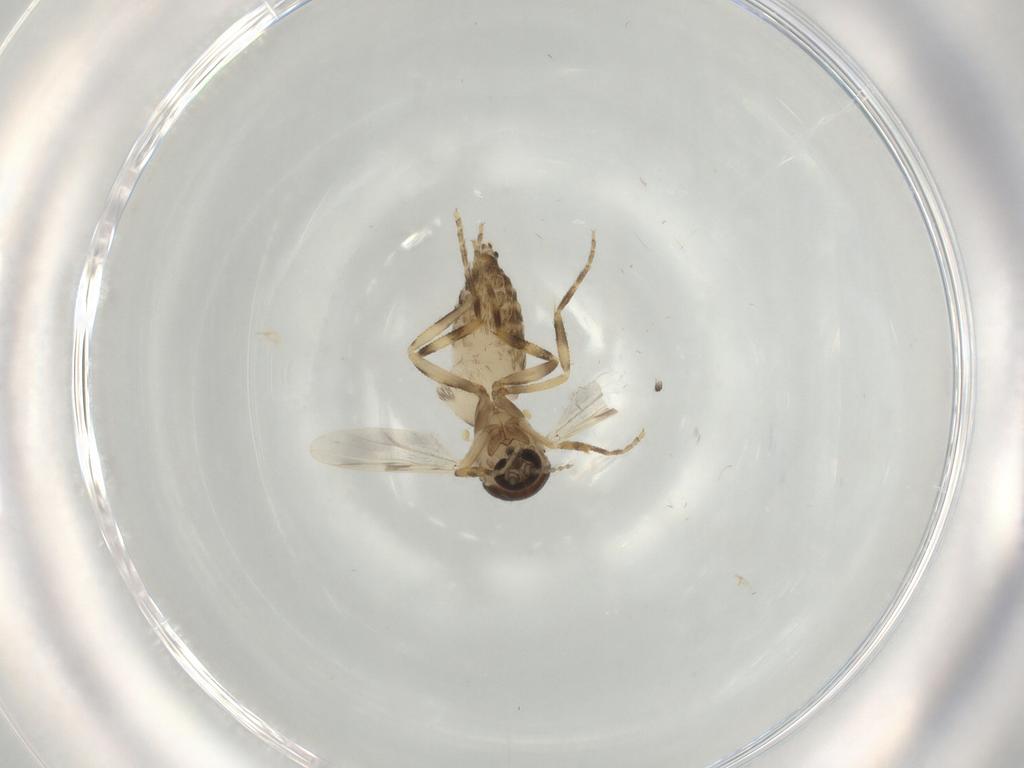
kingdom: Animalia
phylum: Arthropoda
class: Insecta
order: Diptera
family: Ceratopogonidae
